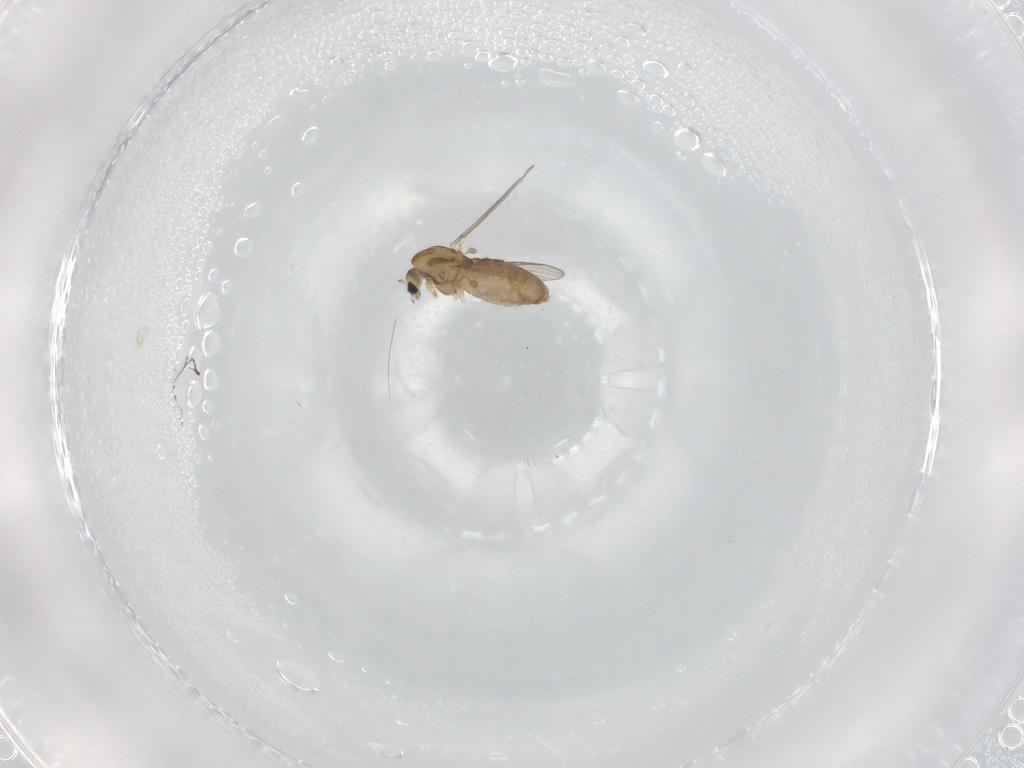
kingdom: Animalia
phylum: Arthropoda
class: Insecta
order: Diptera
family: Chironomidae
